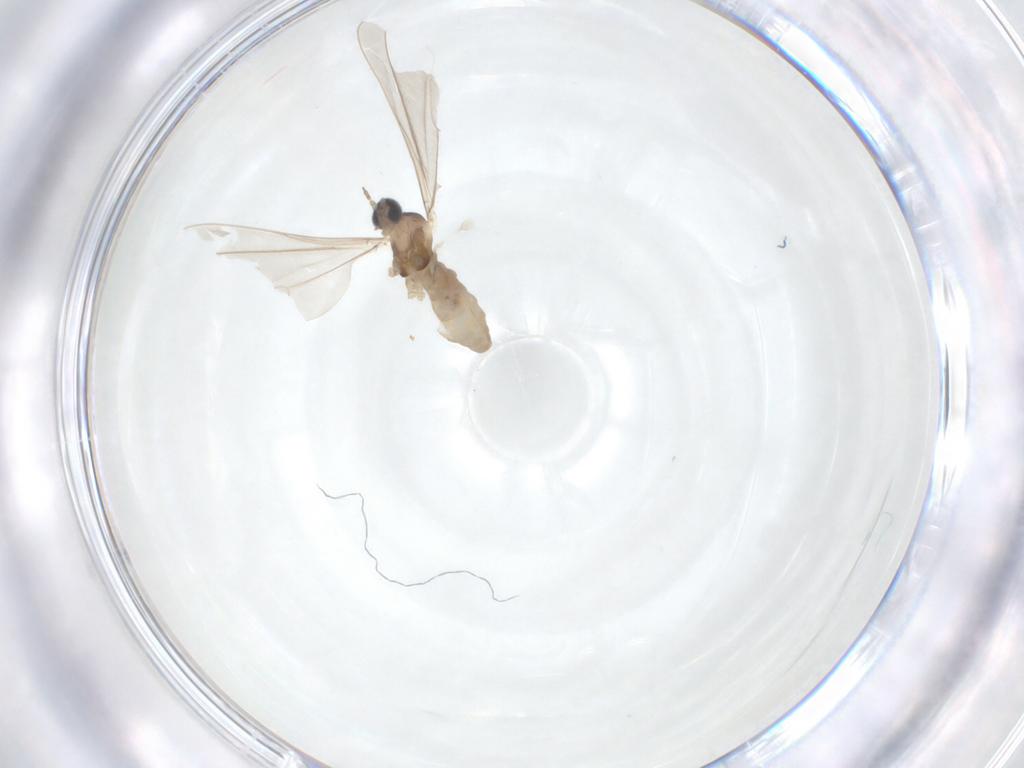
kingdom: Animalia
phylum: Arthropoda
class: Insecta
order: Diptera
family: Cecidomyiidae
